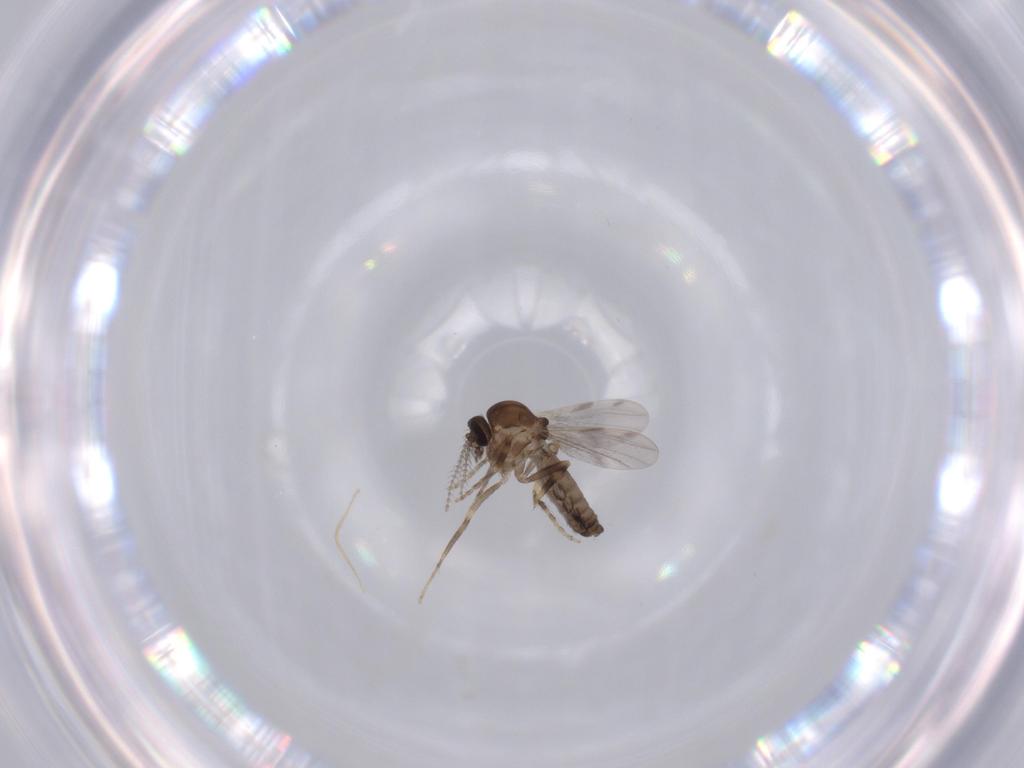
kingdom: Animalia
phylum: Arthropoda
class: Insecta
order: Diptera
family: Ceratopogonidae
